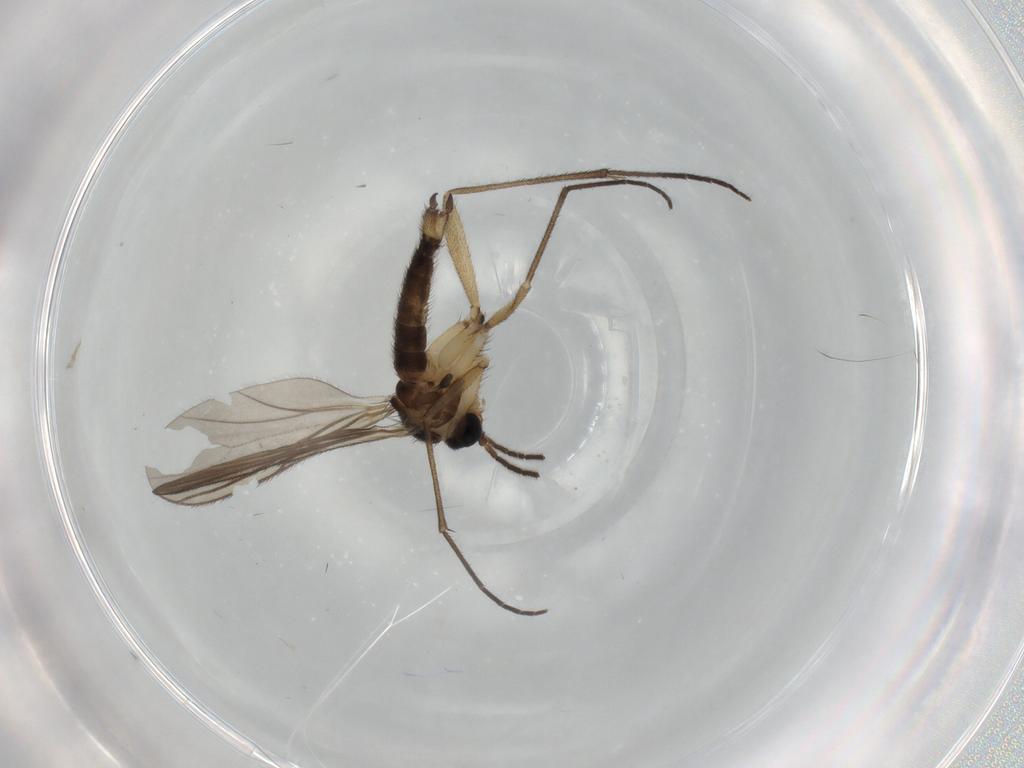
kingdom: Animalia
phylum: Arthropoda
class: Insecta
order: Diptera
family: Sciaridae
